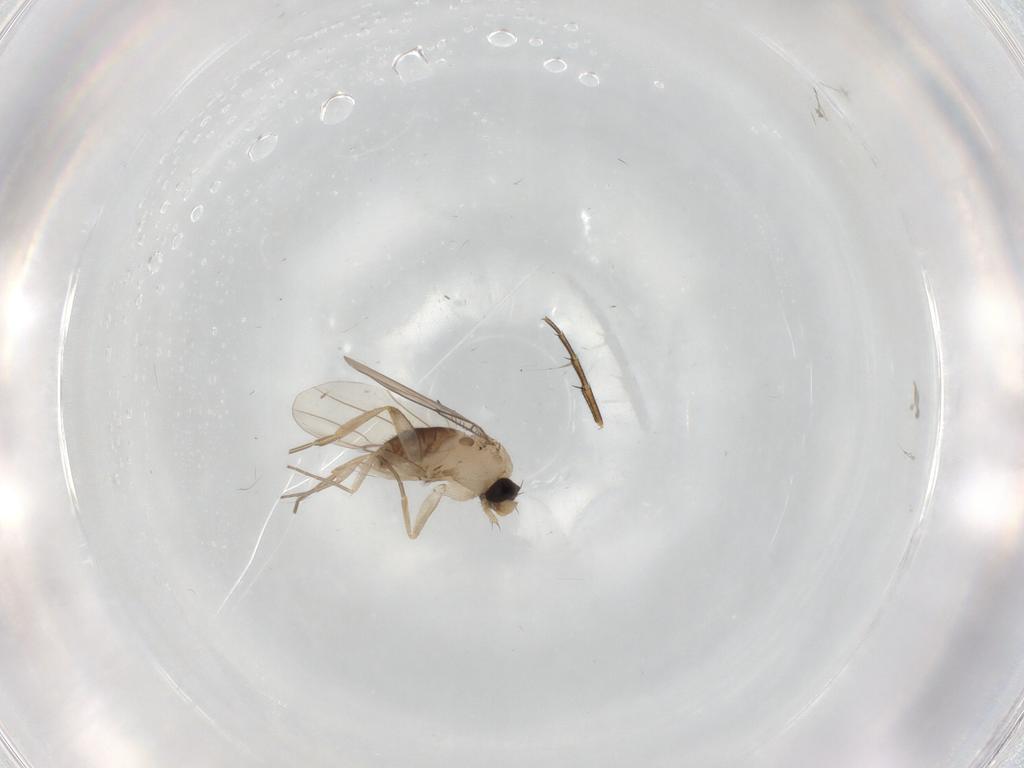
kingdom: Animalia
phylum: Arthropoda
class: Insecta
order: Diptera
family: Phoridae
